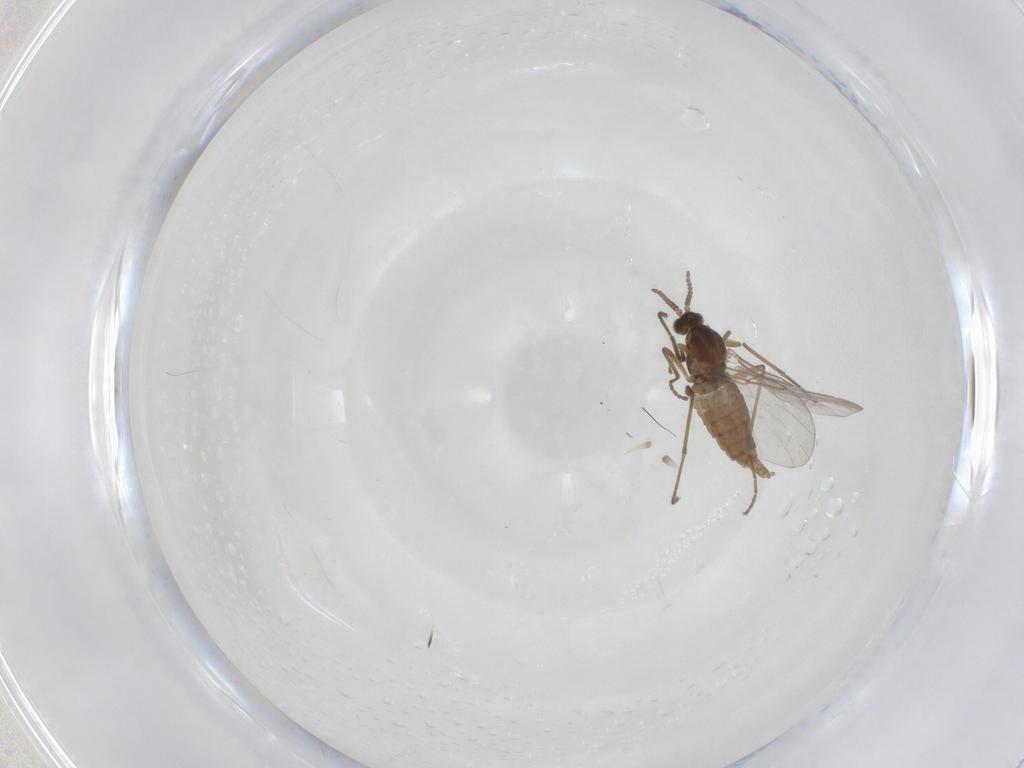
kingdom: Animalia
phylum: Arthropoda
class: Insecta
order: Diptera
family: Cecidomyiidae
